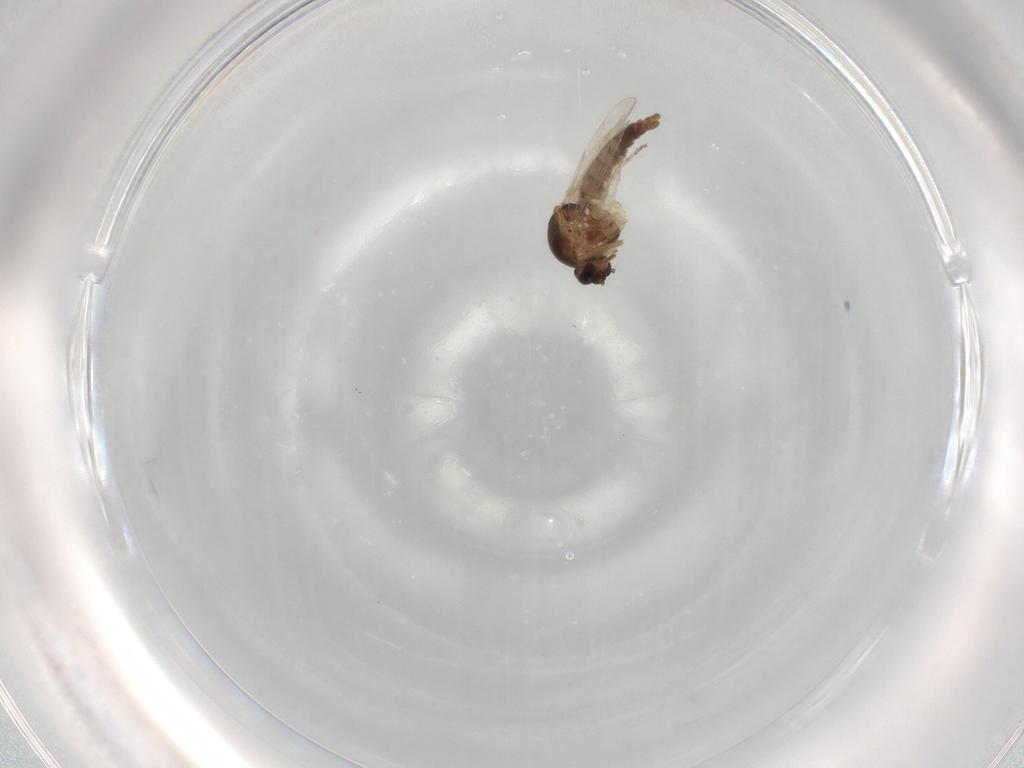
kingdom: Animalia
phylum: Arthropoda
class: Insecta
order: Diptera
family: Ceratopogonidae
